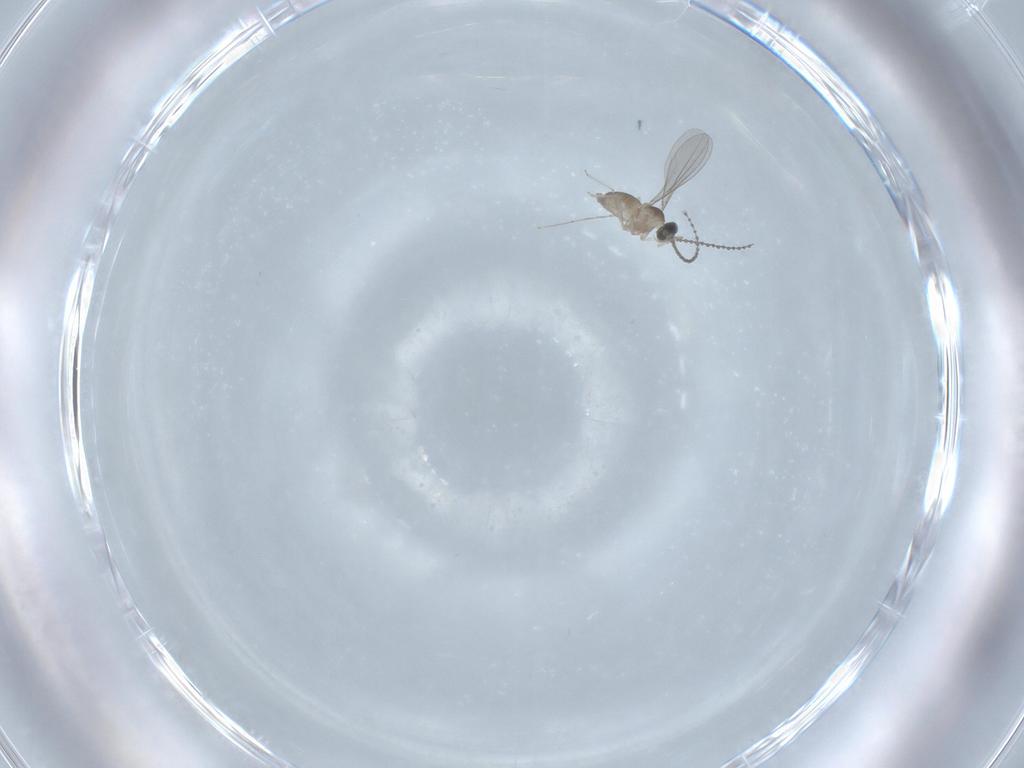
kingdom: Animalia
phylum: Arthropoda
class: Insecta
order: Diptera
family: Cecidomyiidae
